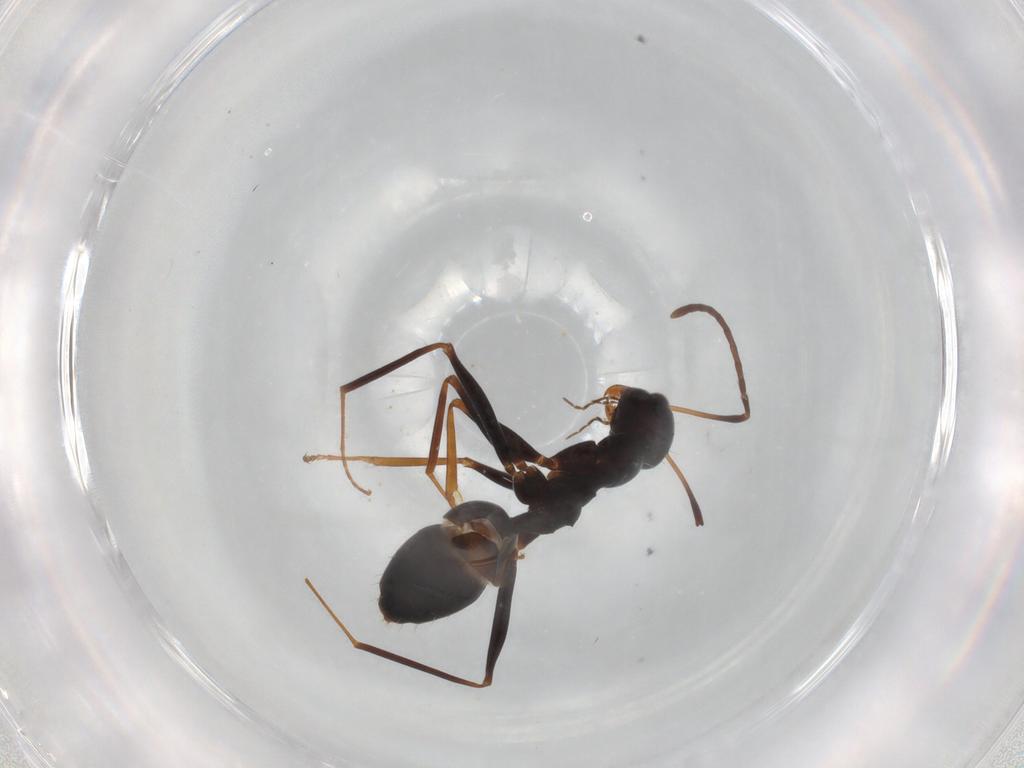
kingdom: Animalia
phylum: Arthropoda
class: Insecta
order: Hymenoptera
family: Formicidae
